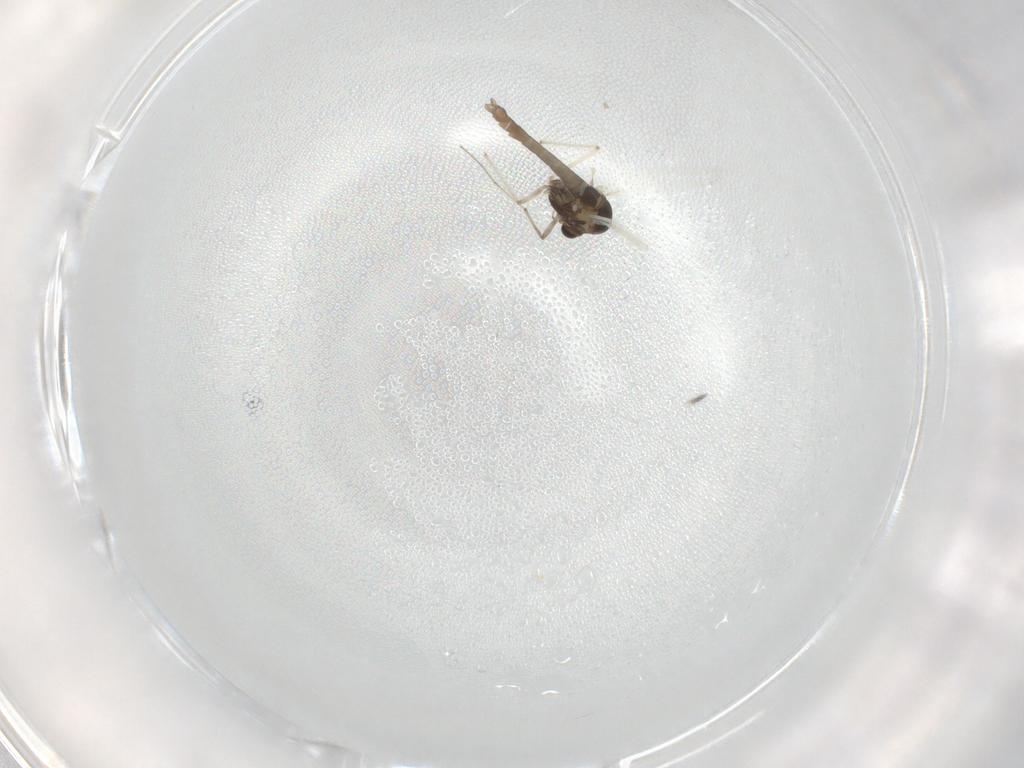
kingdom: Animalia
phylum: Arthropoda
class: Insecta
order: Diptera
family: Chironomidae
